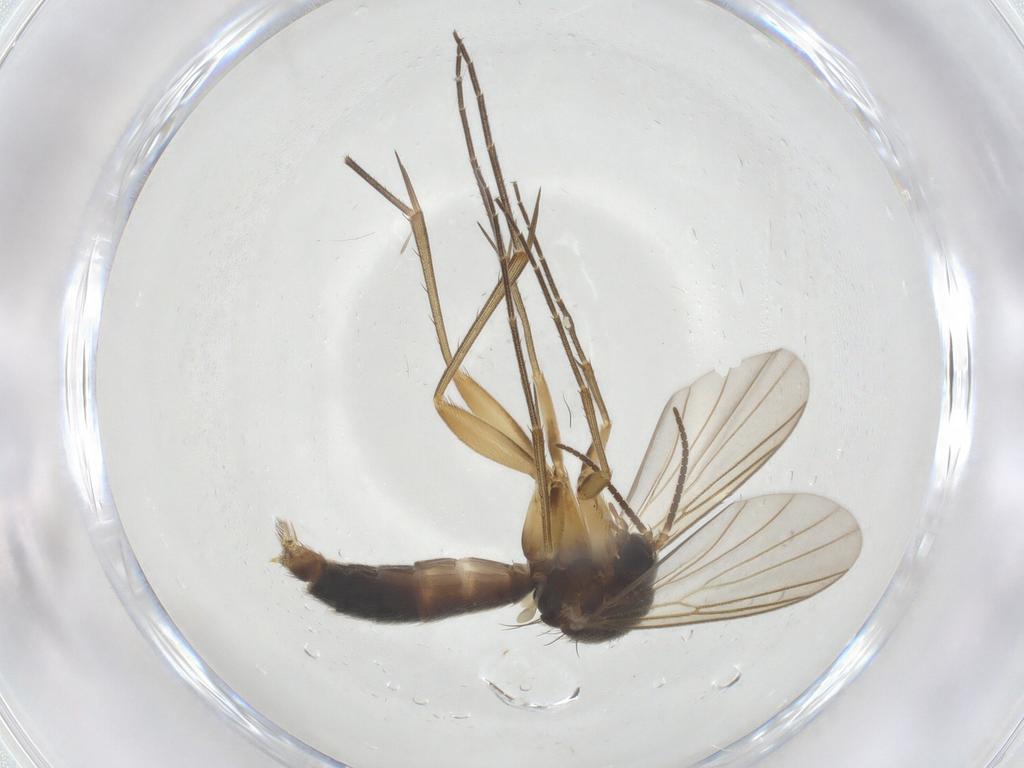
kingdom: Animalia
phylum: Arthropoda
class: Insecta
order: Diptera
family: Mycetophilidae
